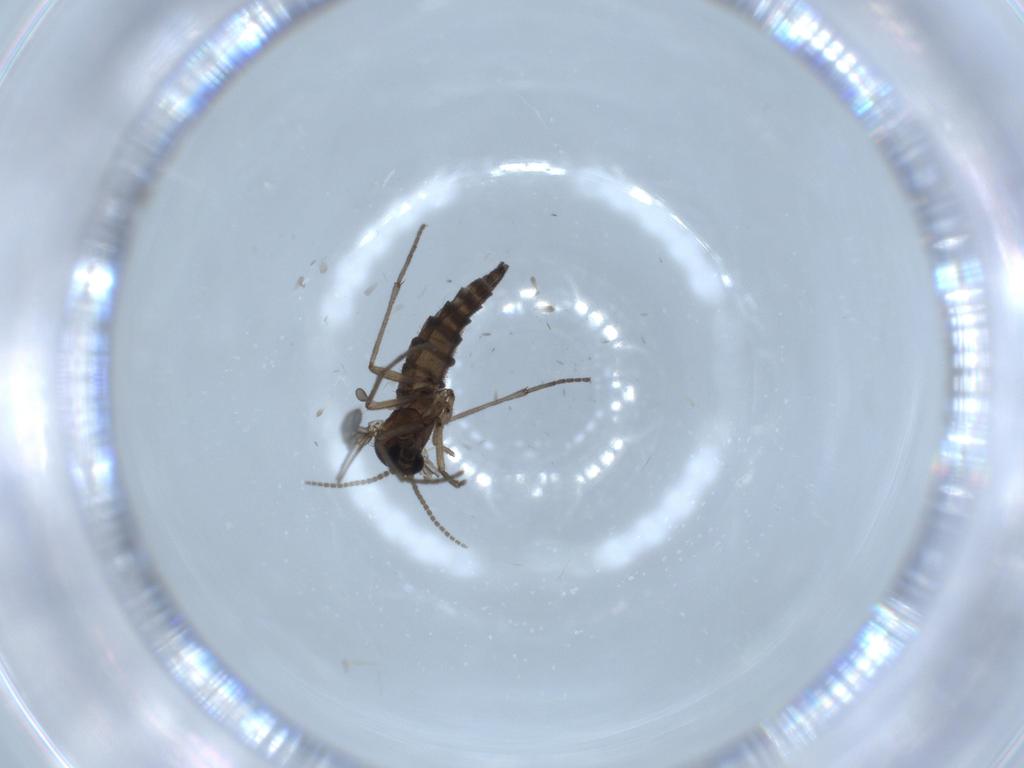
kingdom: Animalia
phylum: Arthropoda
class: Insecta
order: Diptera
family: Sciaridae
